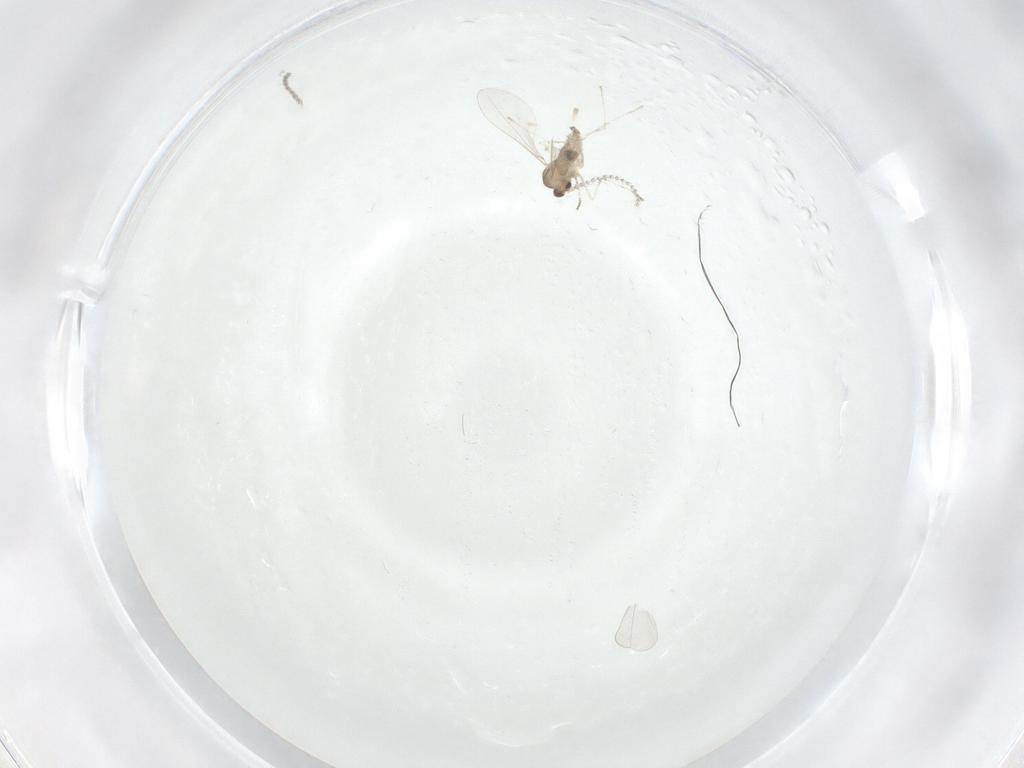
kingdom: Animalia
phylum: Arthropoda
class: Insecta
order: Diptera
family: Cecidomyiidae
